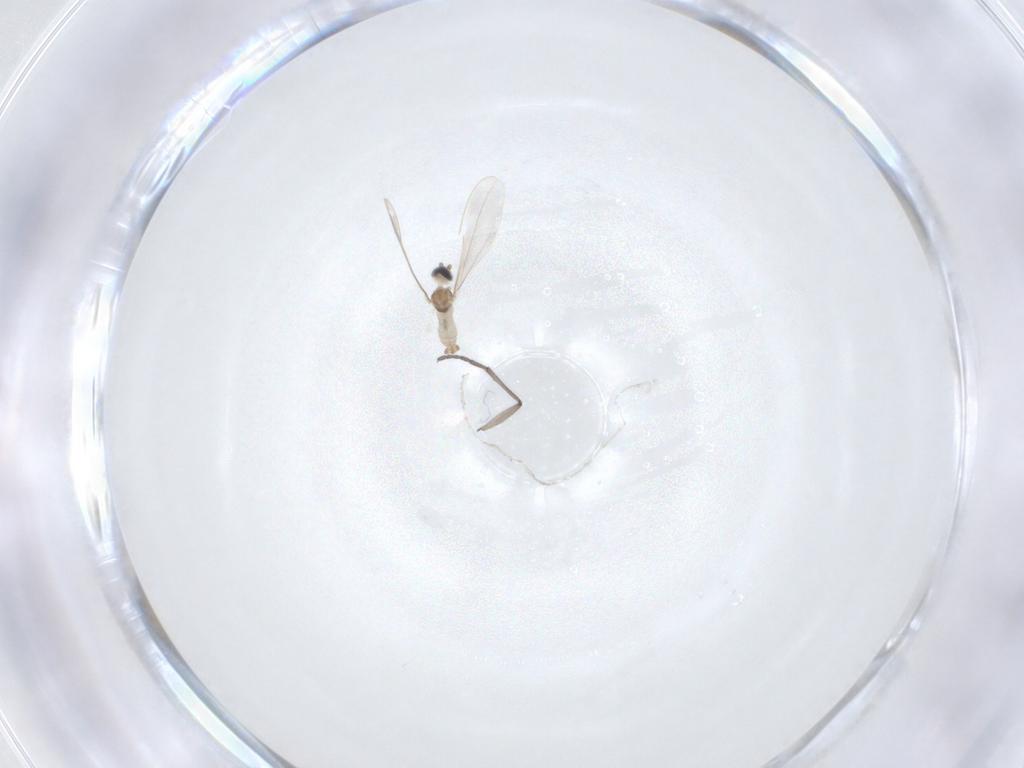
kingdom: Animalia
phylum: Arthropoda
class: Insecta
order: Diptera
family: Cecidomyiidae
